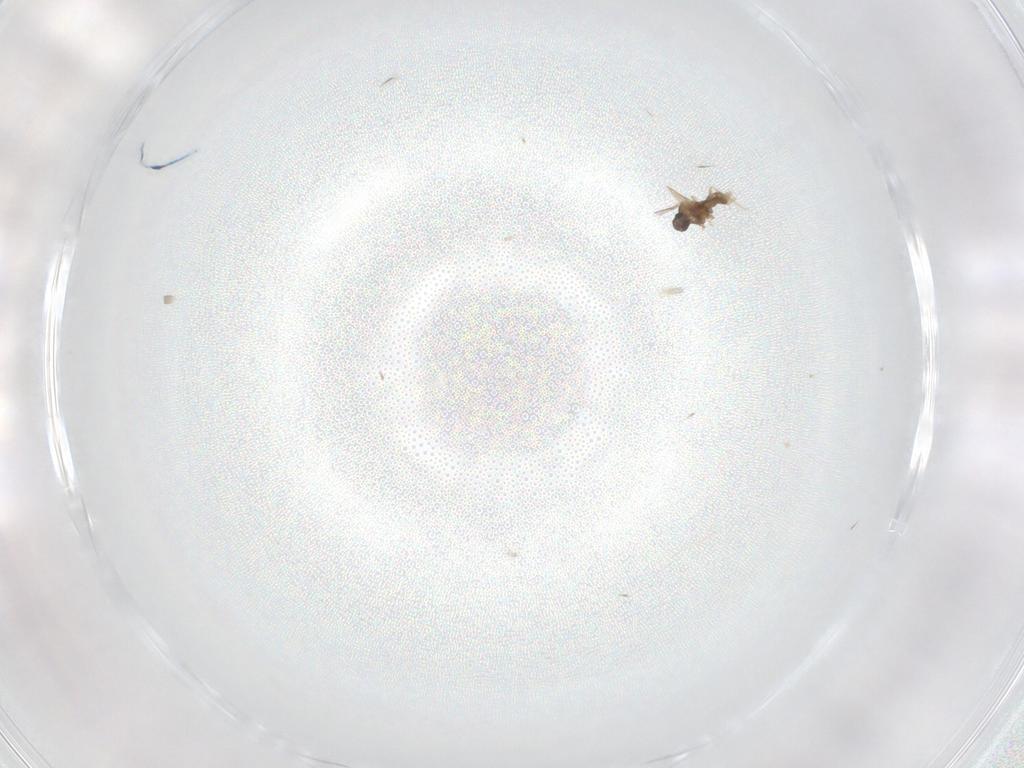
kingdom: Animalia
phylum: Arthropoda
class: Insecta
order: Diptera
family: Cecidomyiidae
